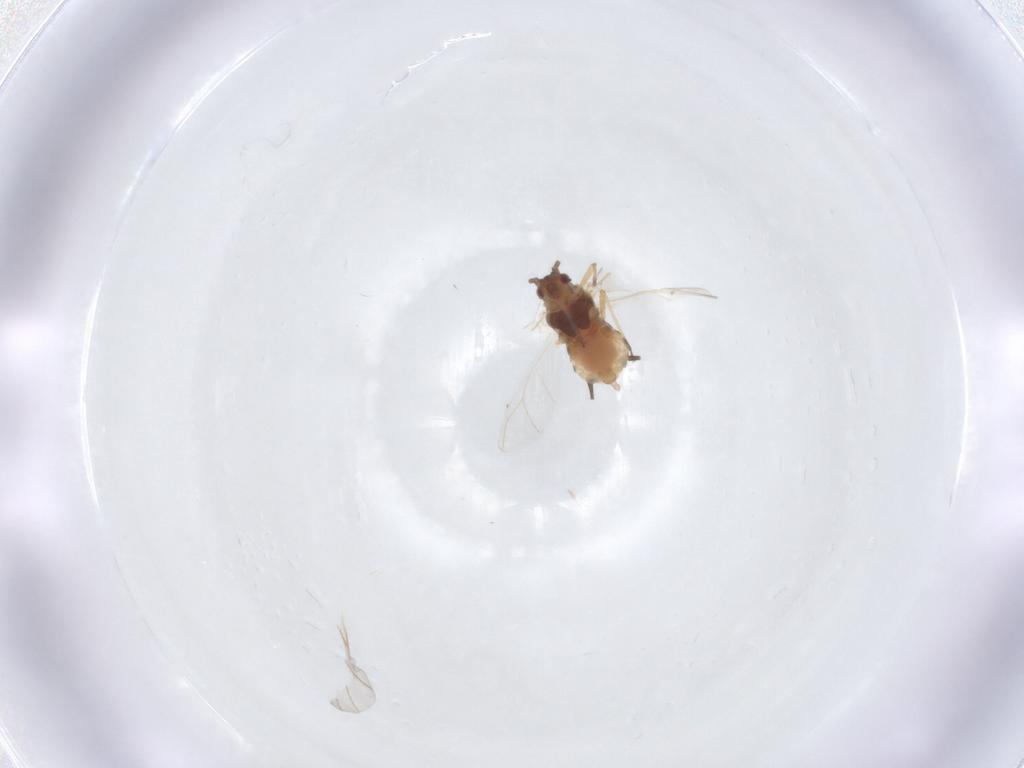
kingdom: Animalia
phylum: Arthropoda
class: Insecta
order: Hemiptera
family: Aphididae
